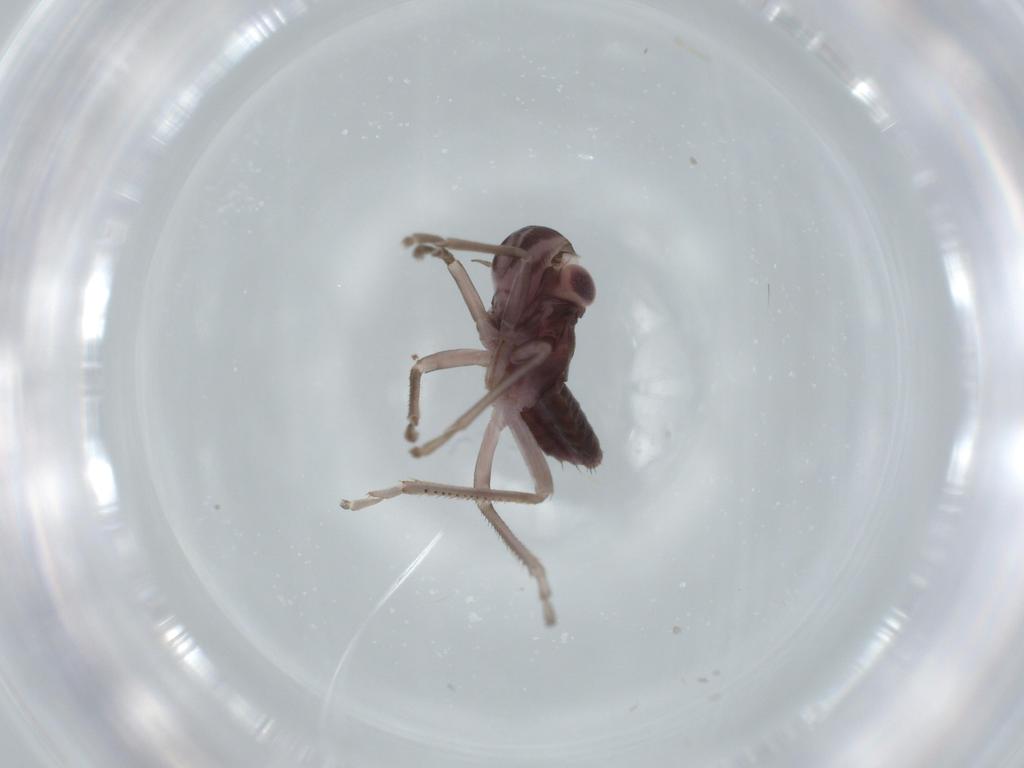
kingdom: Animalia
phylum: Arthropoda
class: Insecta
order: Hemiptera
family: Cicadellidae
